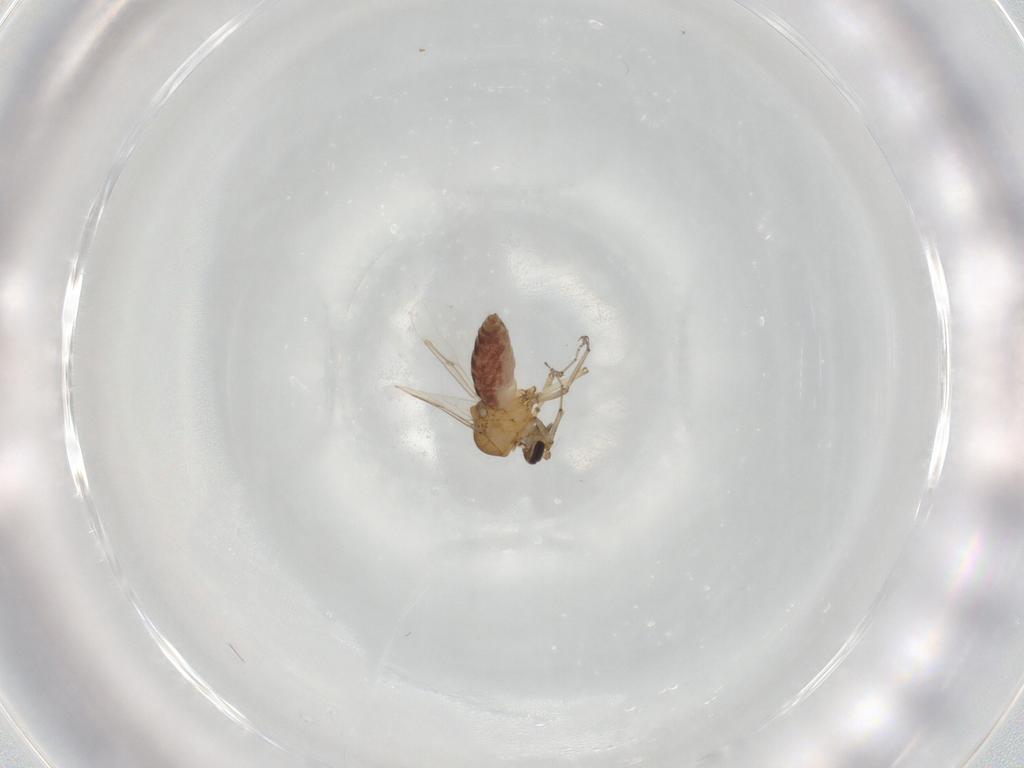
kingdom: Animalia
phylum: Arthropoda
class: Insecta
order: Diptera
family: Ceratopogonidae
